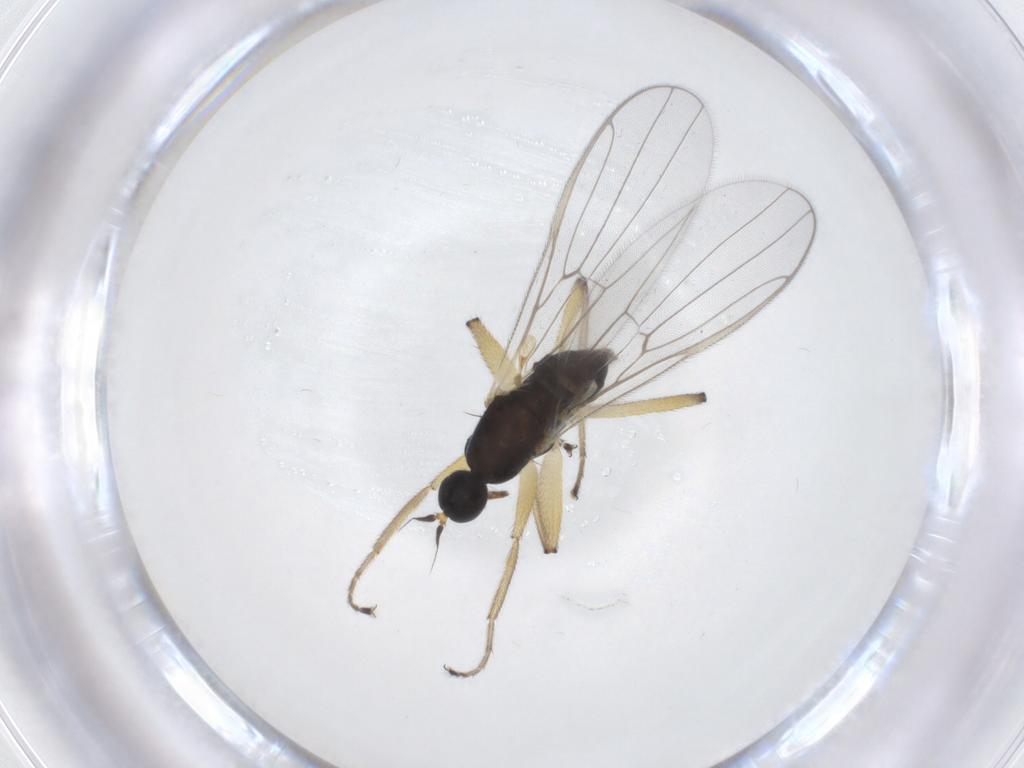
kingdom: Animalia
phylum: Arthropoda
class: Insecta
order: Diptera
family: Hybotidae
